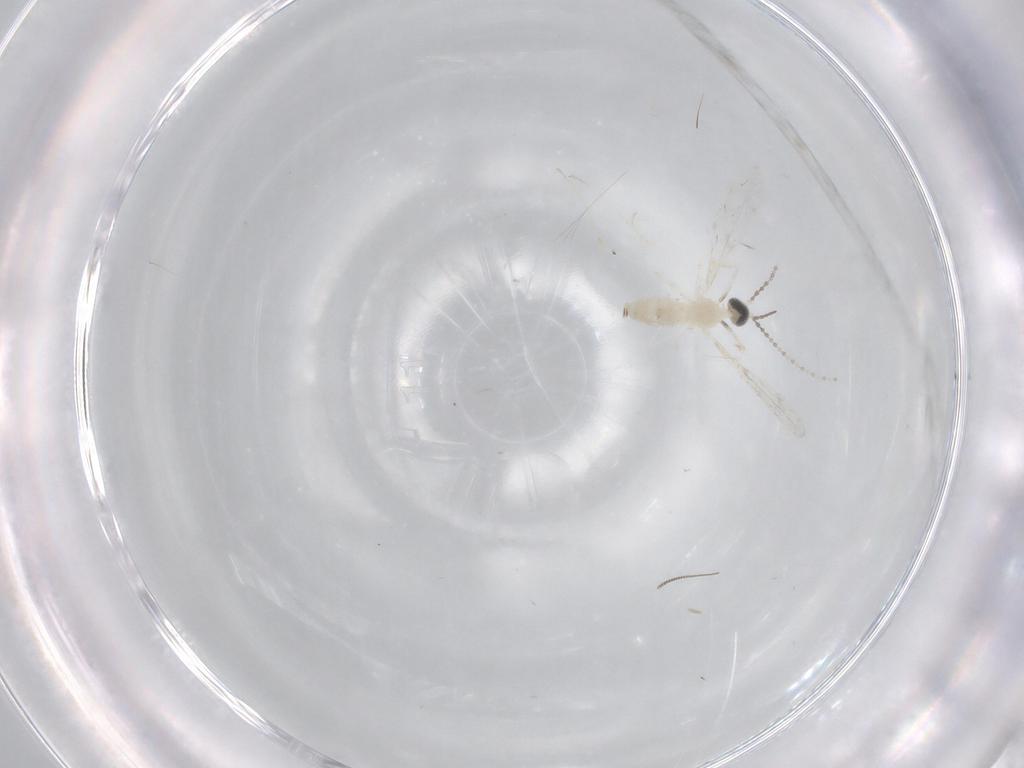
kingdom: Animalia
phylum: Arthropoda
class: Insecta
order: Diptera
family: Cecidomyiidae
